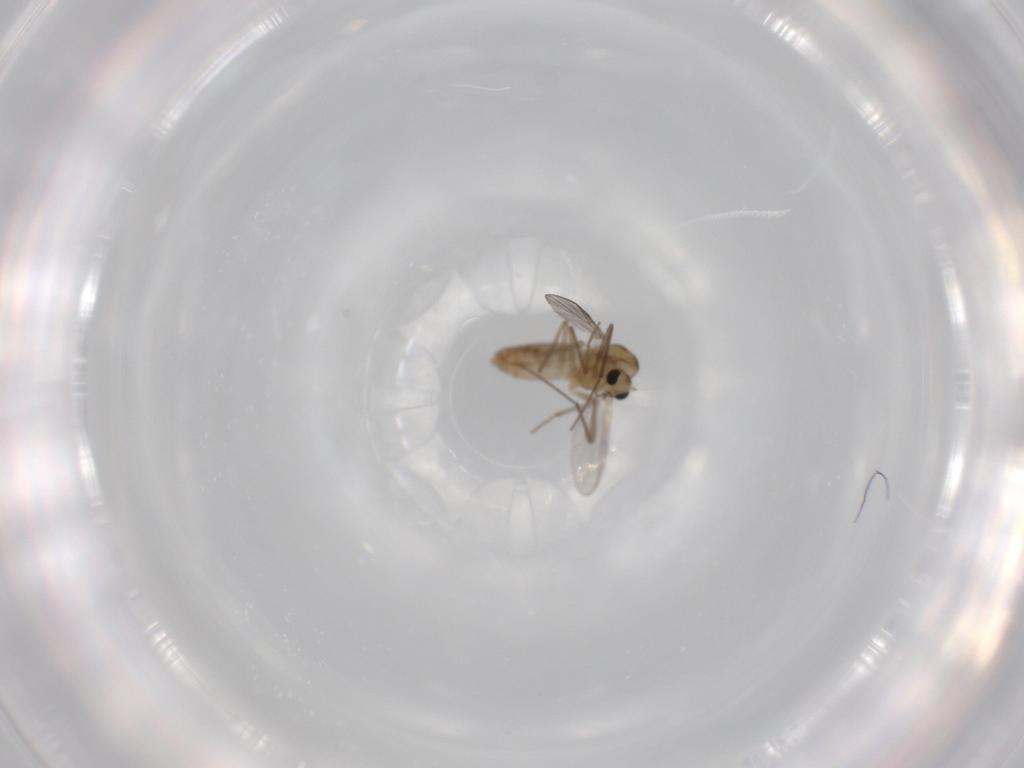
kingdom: Animalia
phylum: Arthropoda
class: Insecta
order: Diptera
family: Chironomidae
